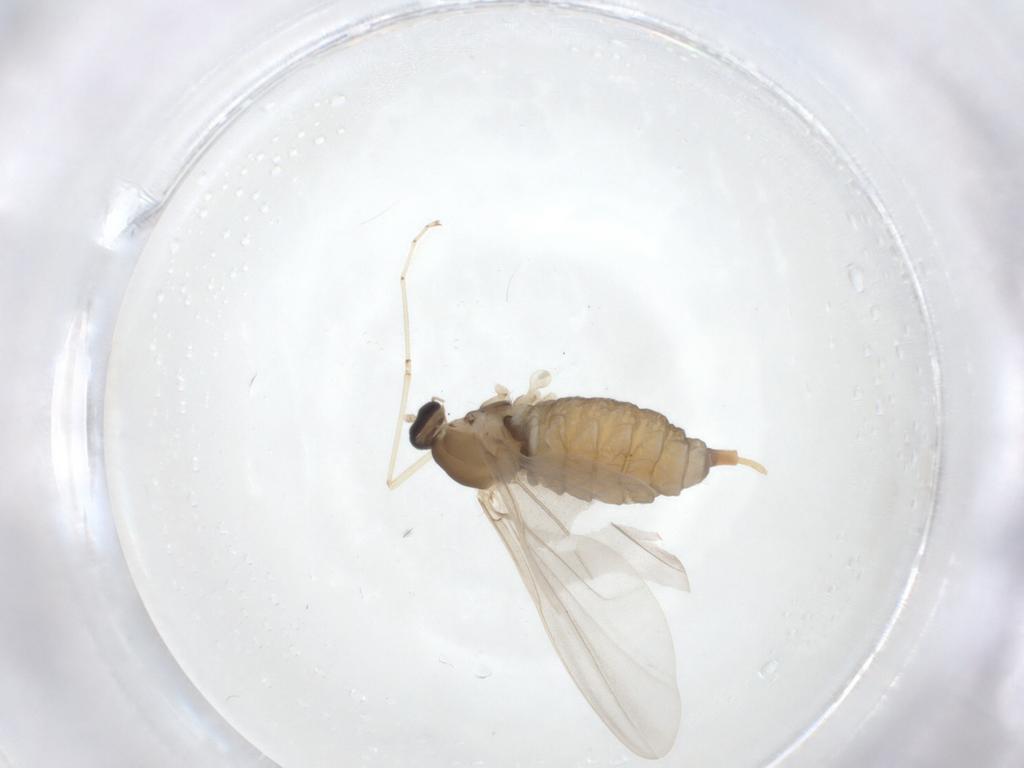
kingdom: Animalia
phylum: Arthropoda
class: Insecta
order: Diptera
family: Cecidomyiidae
